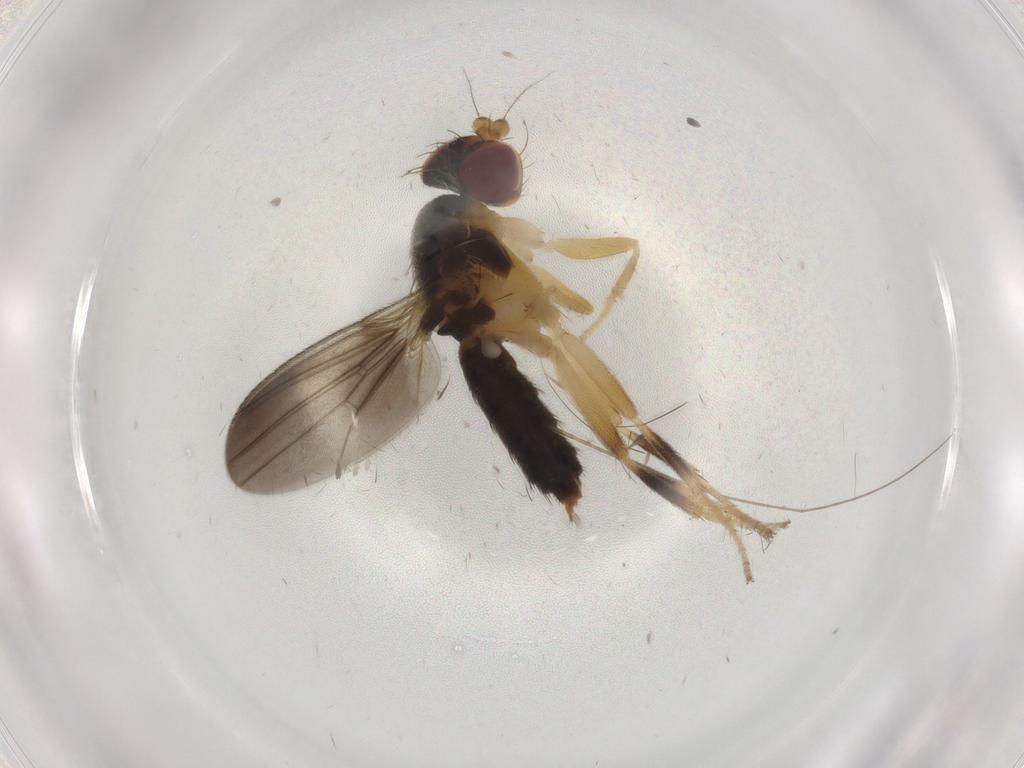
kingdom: Animalia
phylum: Arthropoda
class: Insecta
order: Diptera
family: Clusiidae
